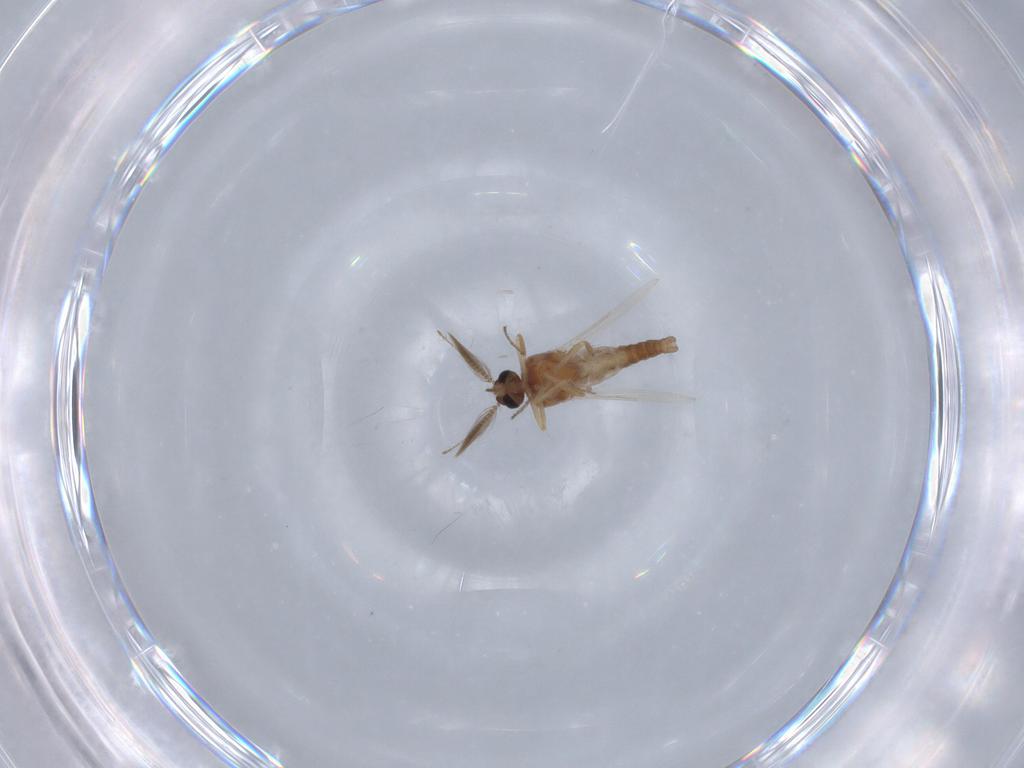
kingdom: Animalia
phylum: Arthropoda
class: Insecta
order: Diptera
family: Ceratopogonidae
